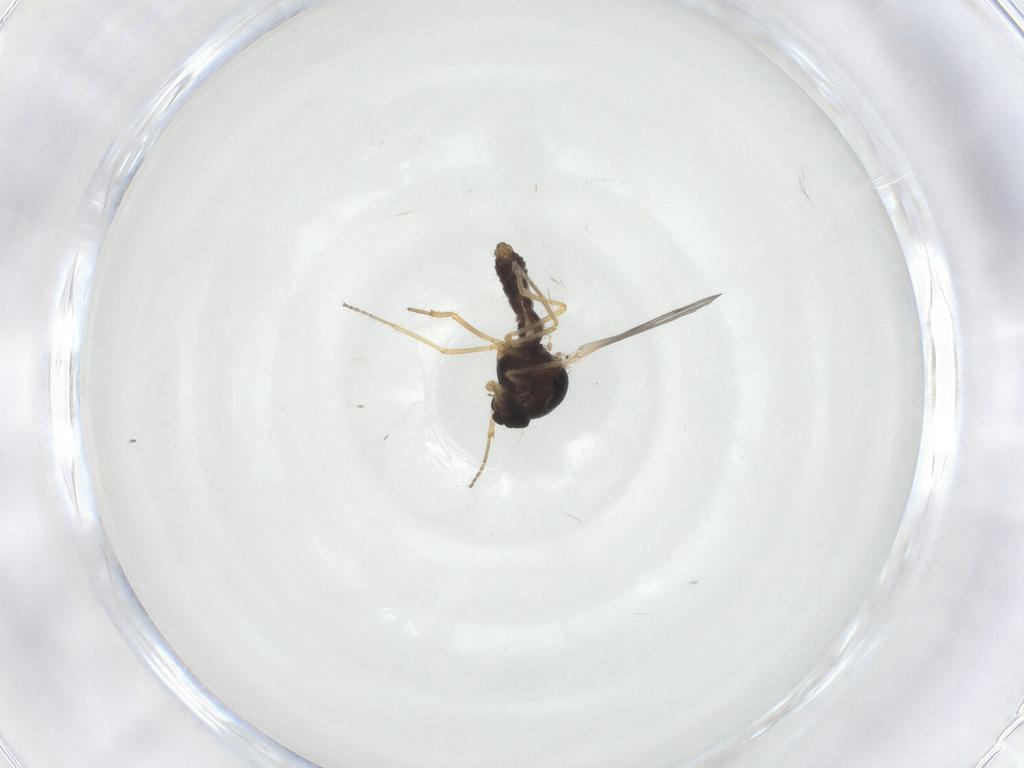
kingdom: Animalia
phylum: Arthropoda
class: Insecta
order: Diptera
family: Ceratopogonidae
